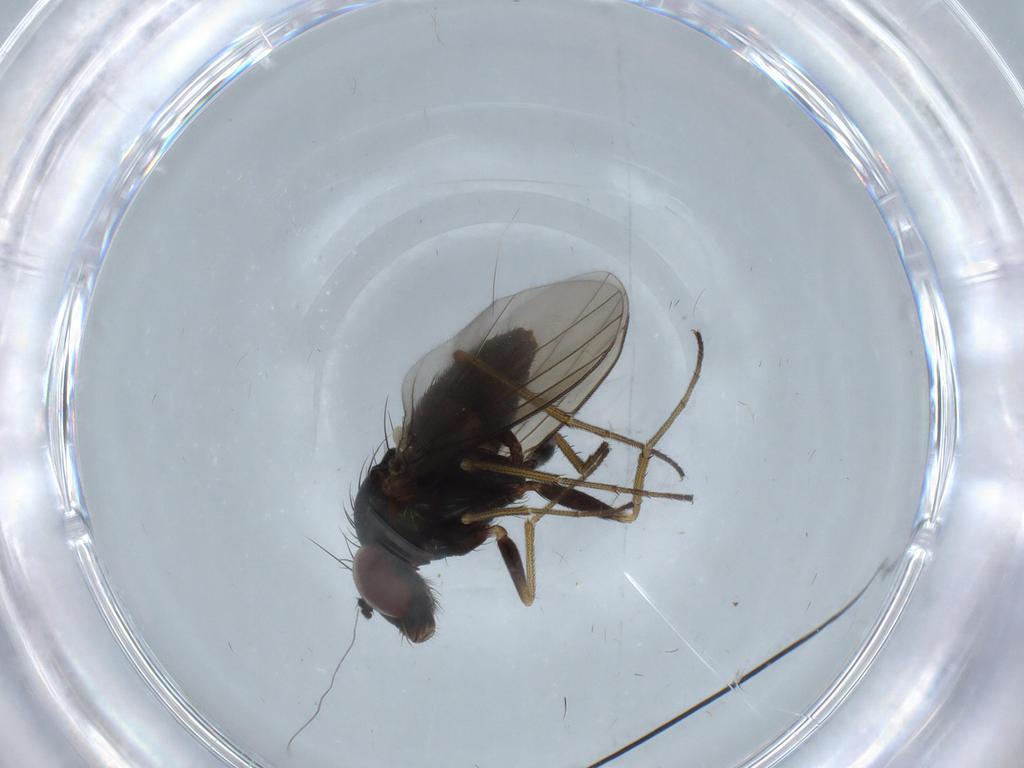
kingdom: Animalia
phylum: Arthropoda
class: Insecta
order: Diptera
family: Dolichopodidae
